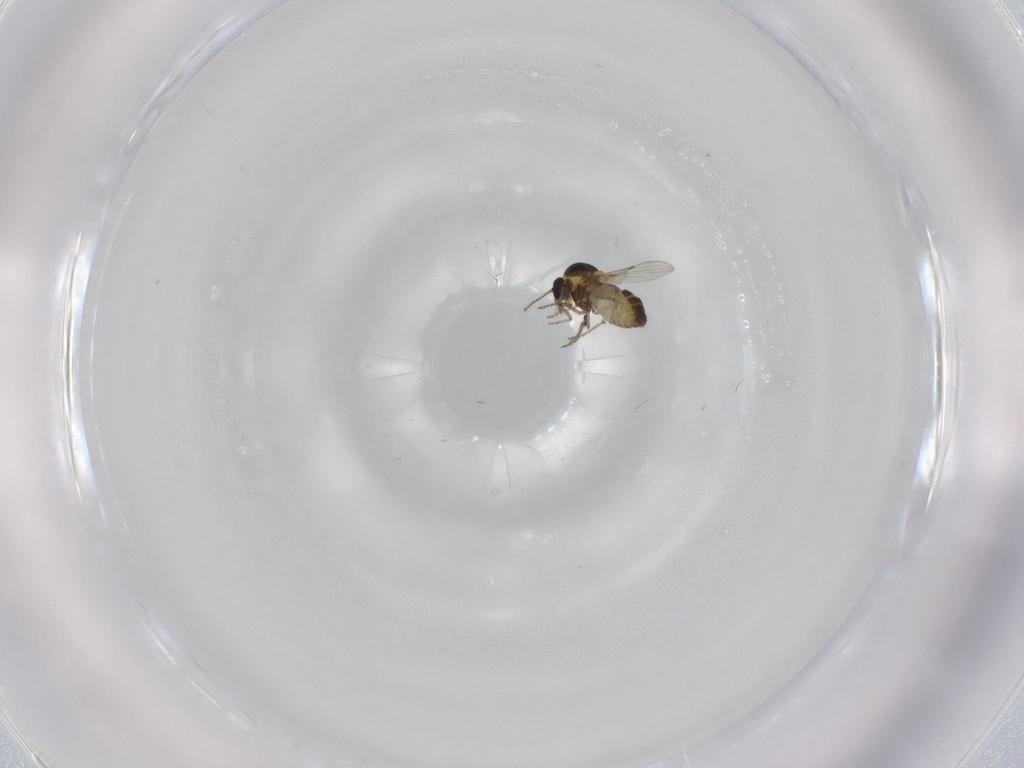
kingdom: Animalia
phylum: Arthropoda
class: Insecta
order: Diptera
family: Ceratopogonidae
